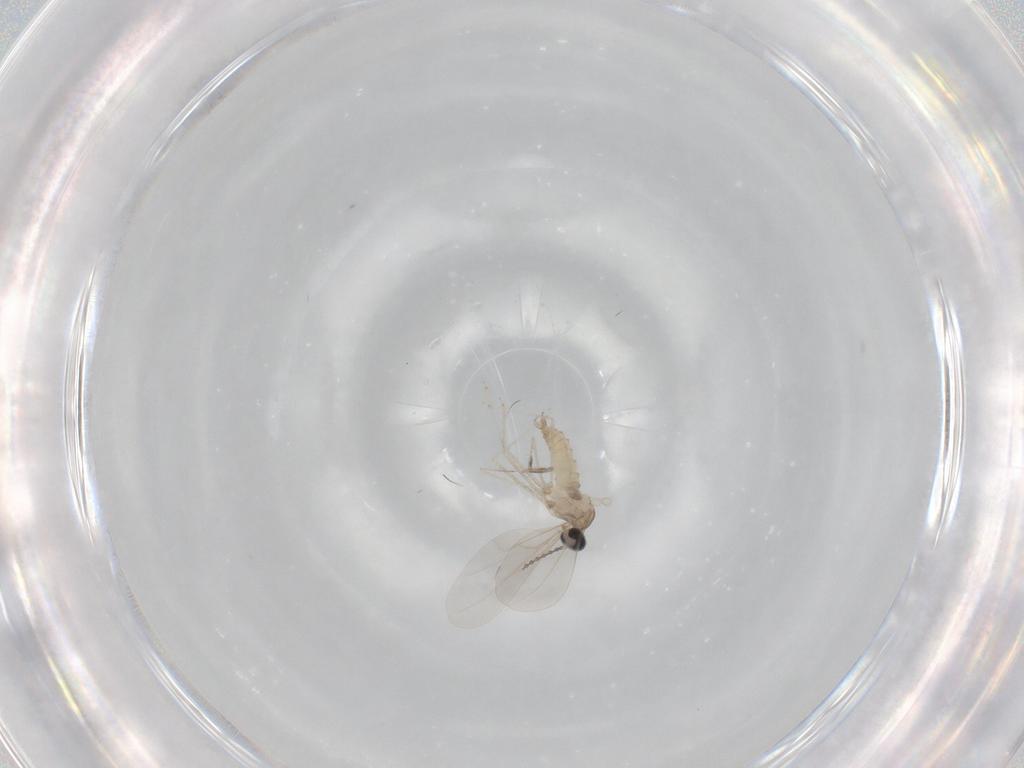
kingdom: Animalia
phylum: Arthropoda
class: Insecta
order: Diptera
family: Cecidomyiidae
